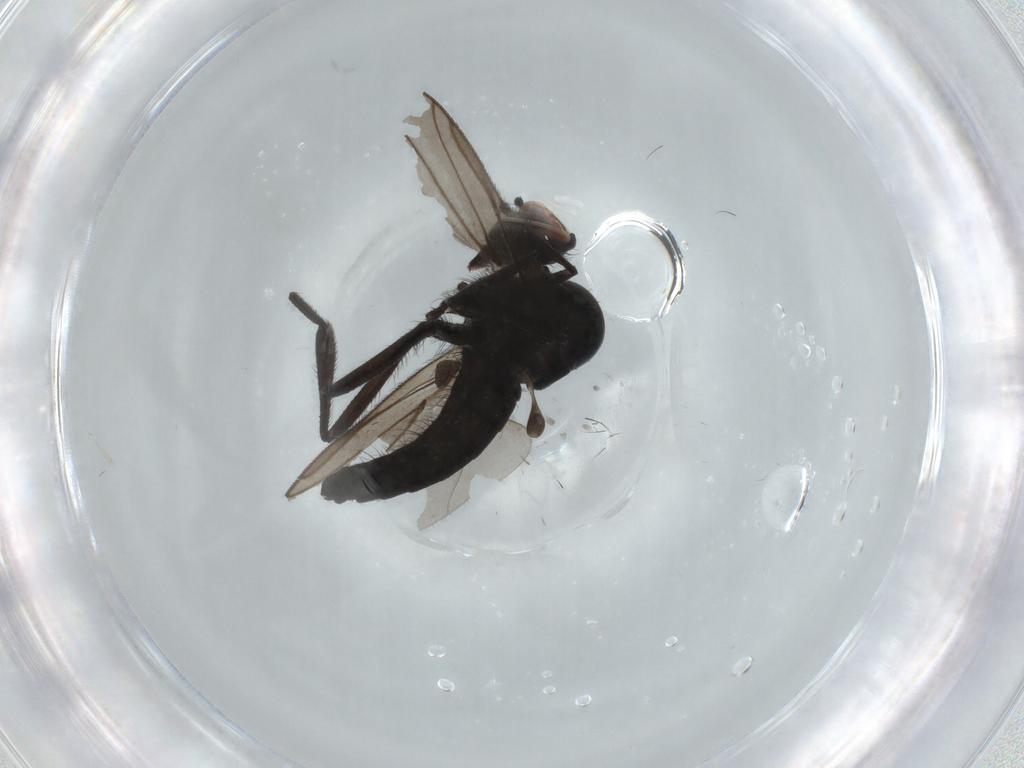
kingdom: Animalia
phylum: Arthropoda
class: Insecta
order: Diptera
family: Hybotidae
